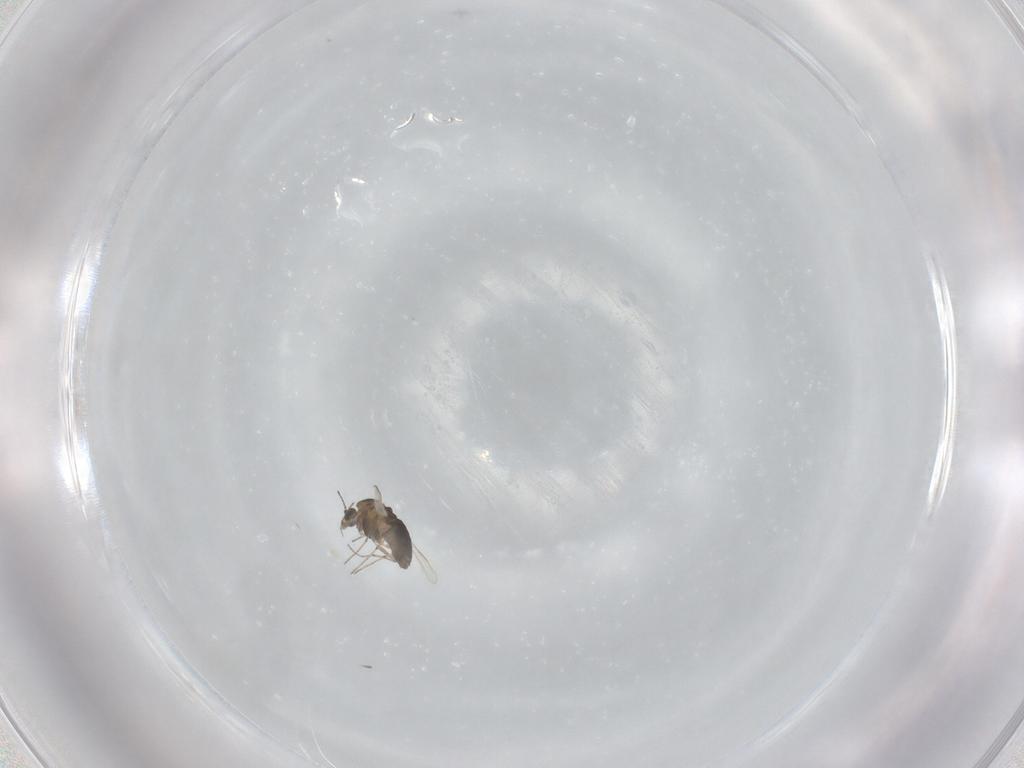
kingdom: Animalia
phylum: Arthropoda
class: Insecta
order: Diptera
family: Chironomidae
